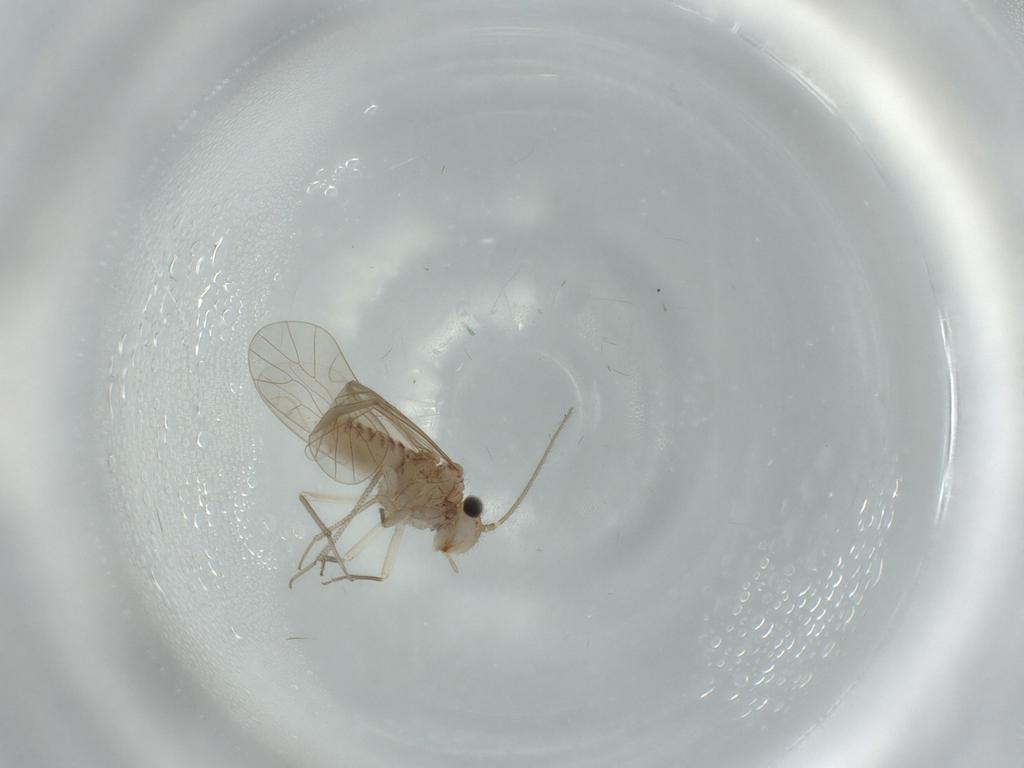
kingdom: Animalia
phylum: Arthropoda
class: Insecta
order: Psocodea
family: Caeciliusidae
